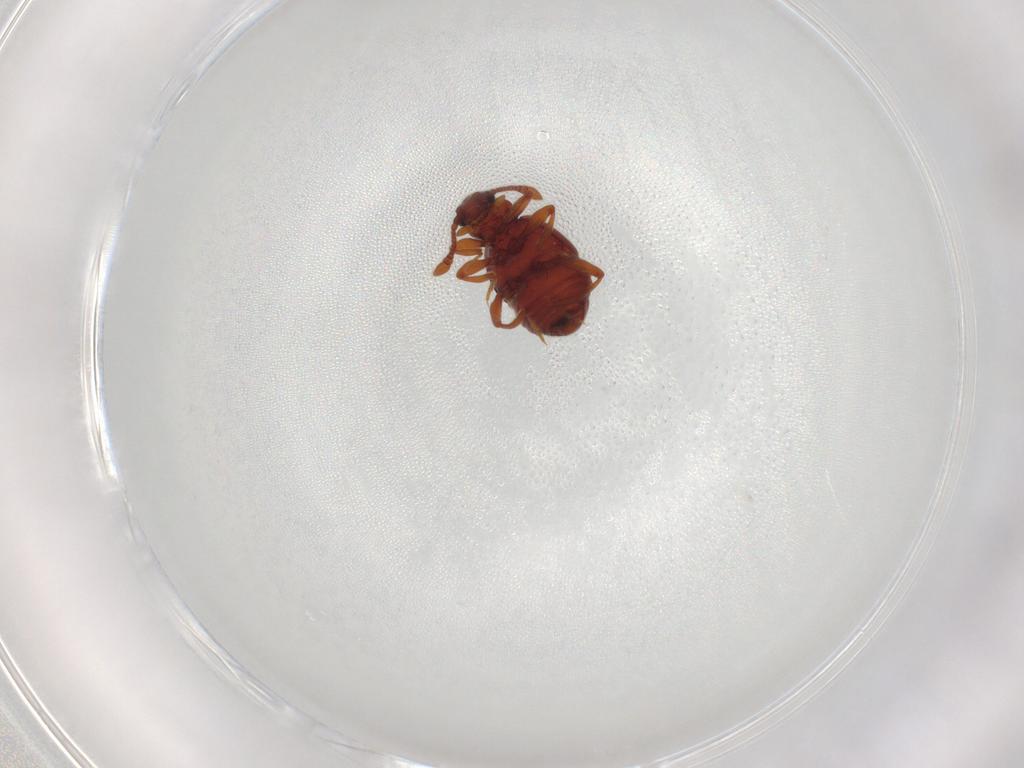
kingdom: Animalia
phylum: Arthropoda
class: Insecta
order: Coleoptera
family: Staphylinidae
